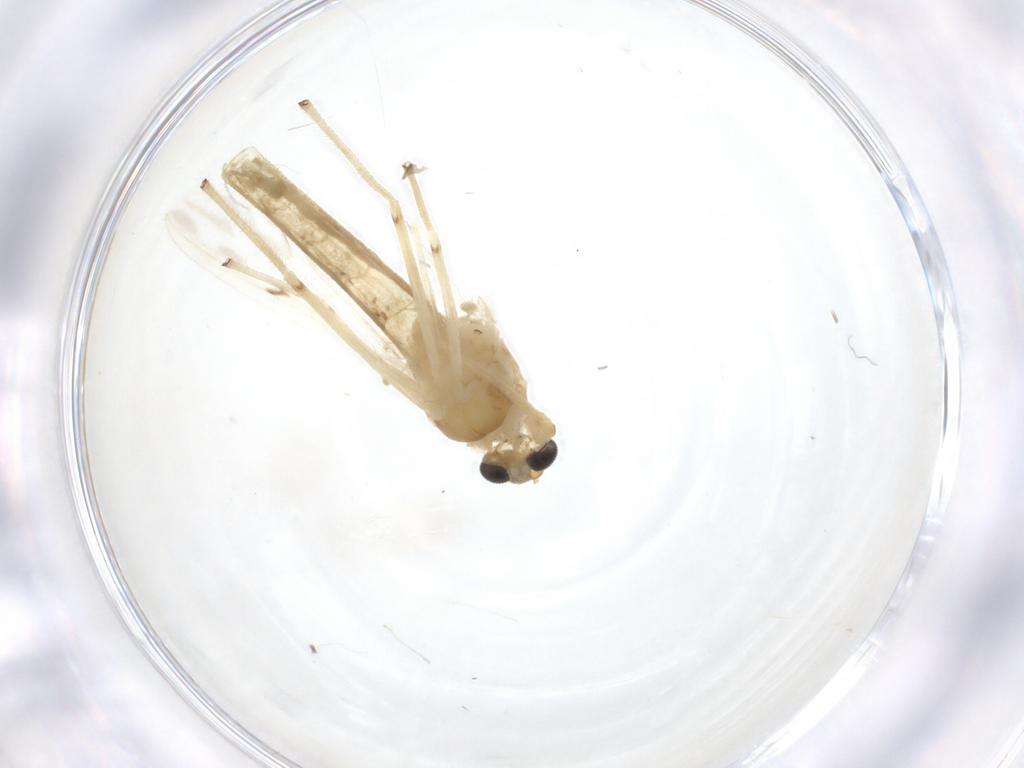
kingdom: Animalia
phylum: Arthropoda
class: Insecta
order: Diptera
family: Chironomidae
